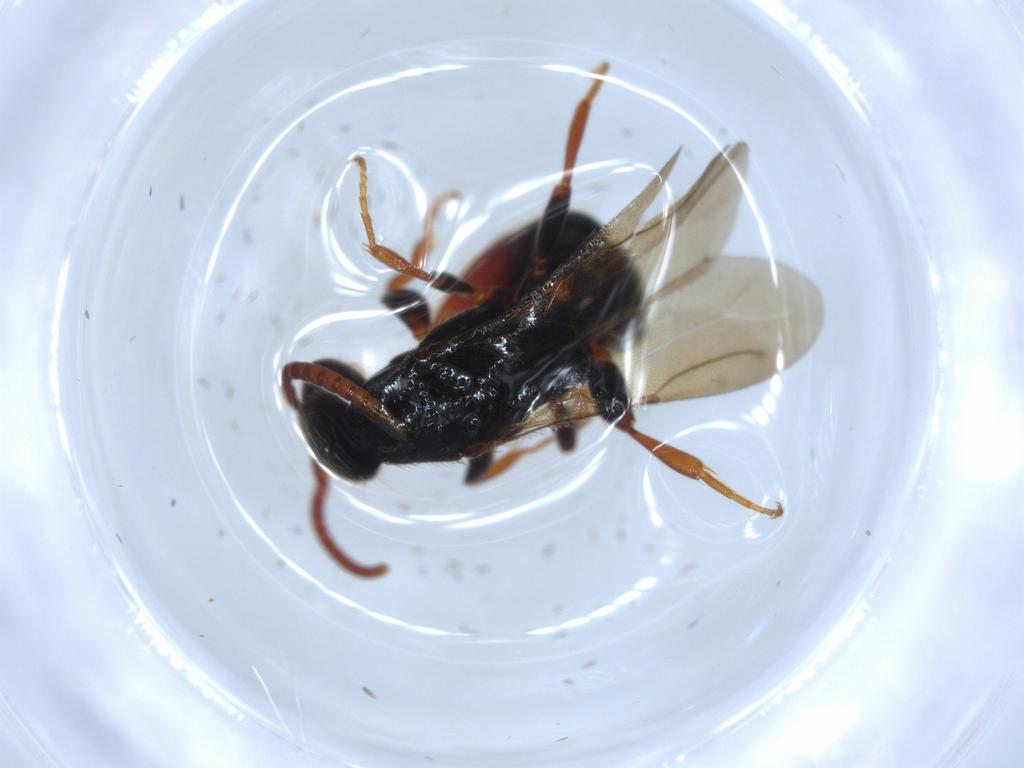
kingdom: Animalia
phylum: Arthropoda
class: Insecta
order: Hymenoptera
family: Bethylidae
